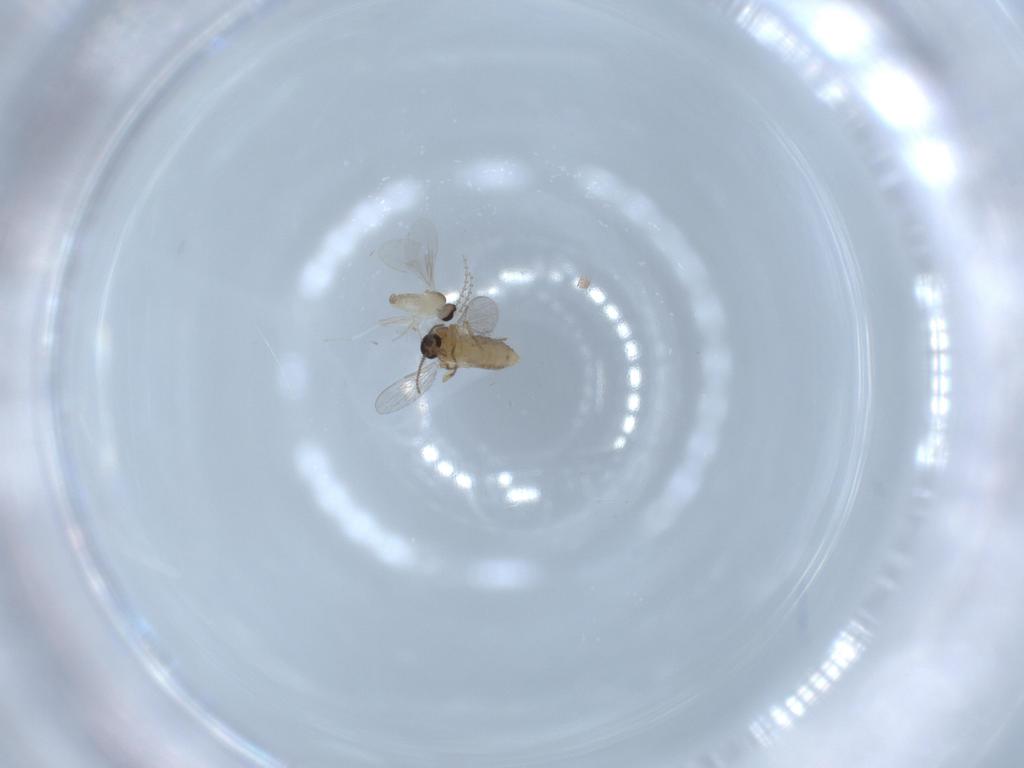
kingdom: Animalia
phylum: Arthropoda
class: Insecta
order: Diptera
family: Ceratopogonidae
